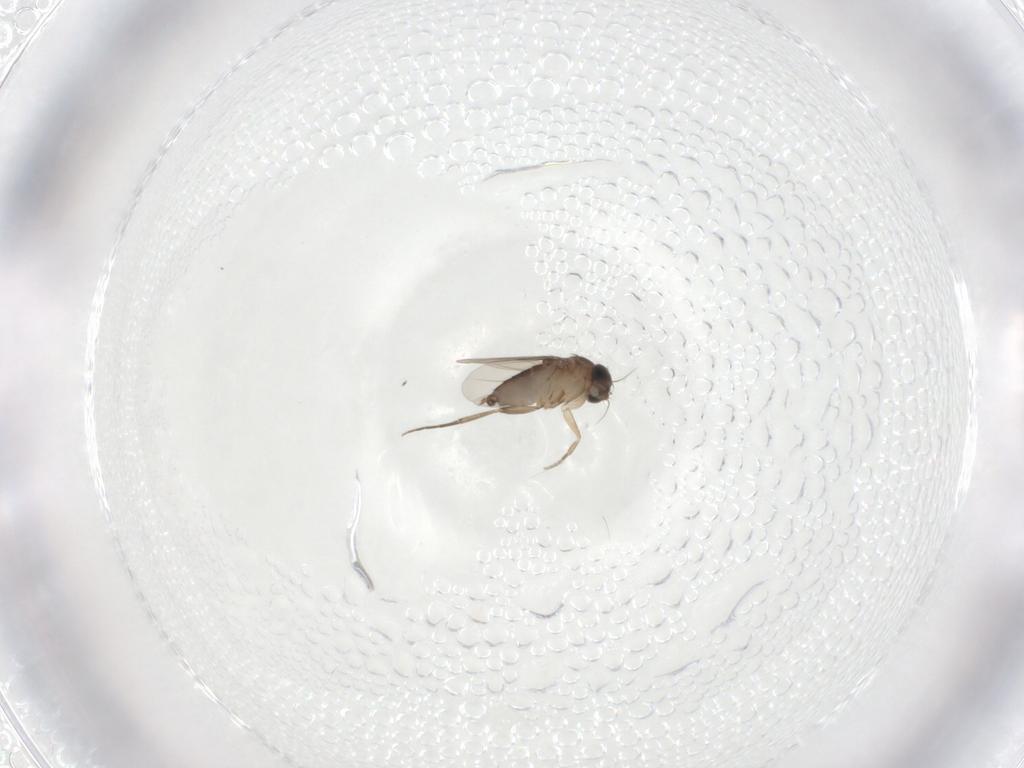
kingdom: Animalia
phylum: Arthropoda
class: Insecta
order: Diptera
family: Phoridae
